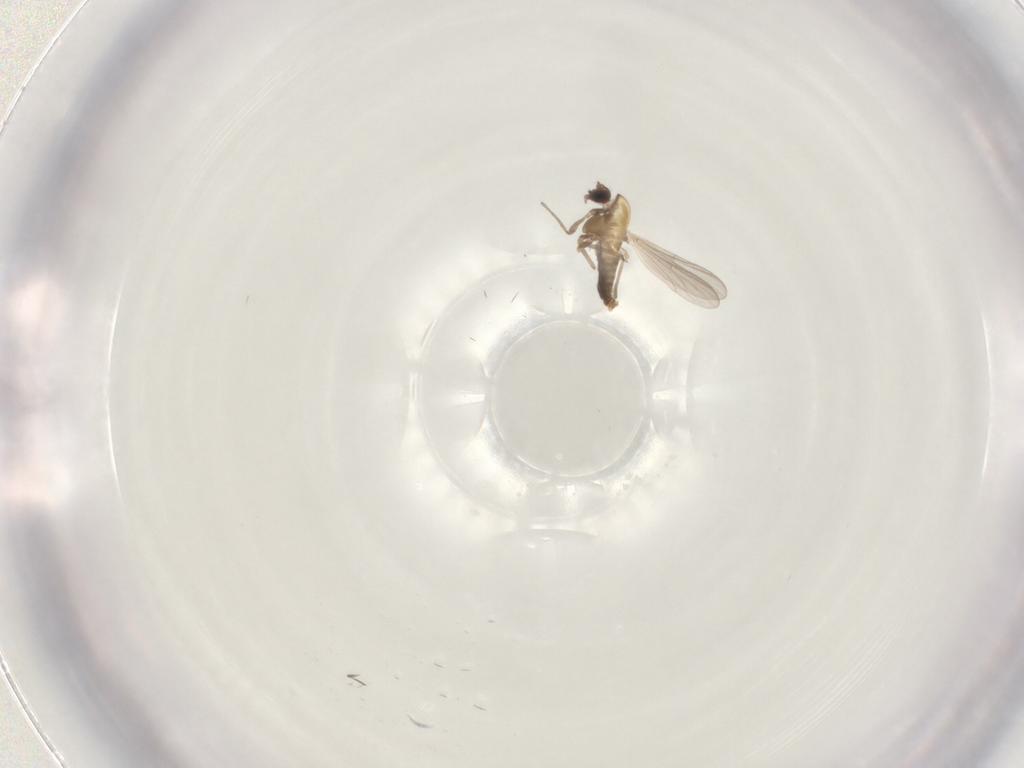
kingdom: Animalia
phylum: Arthropoda
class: Insecta
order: Diptera
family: Chironomidae
